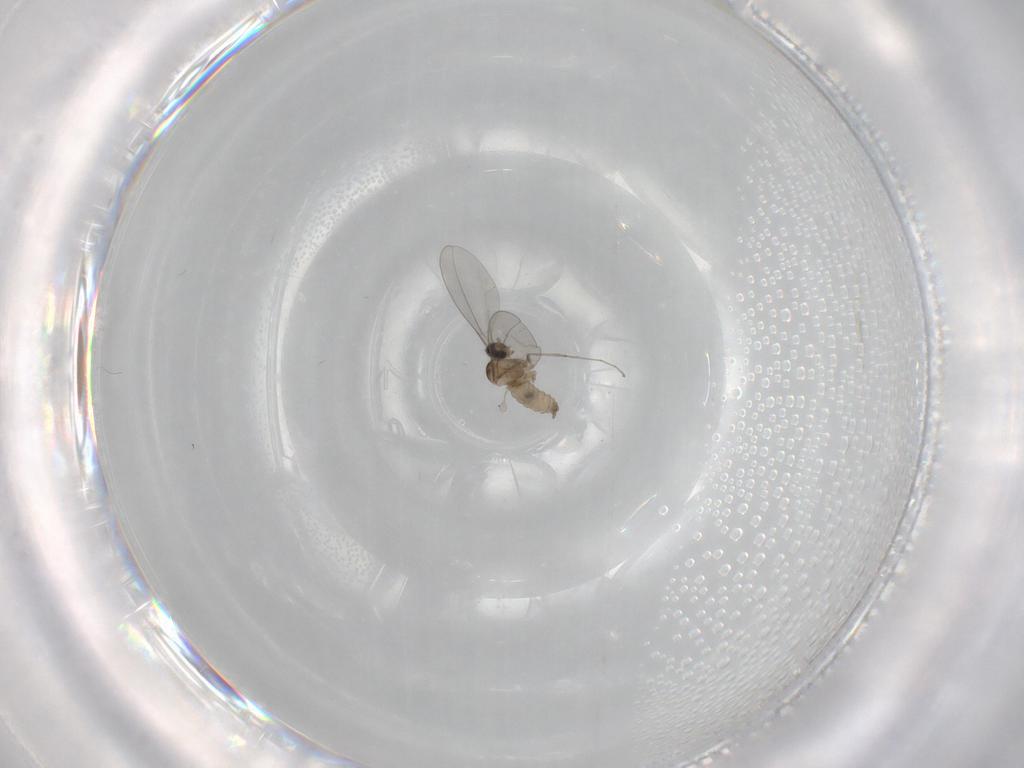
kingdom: Animalia
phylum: Arthropoda
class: Insecta
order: Diptera
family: Cecidomyiidae
